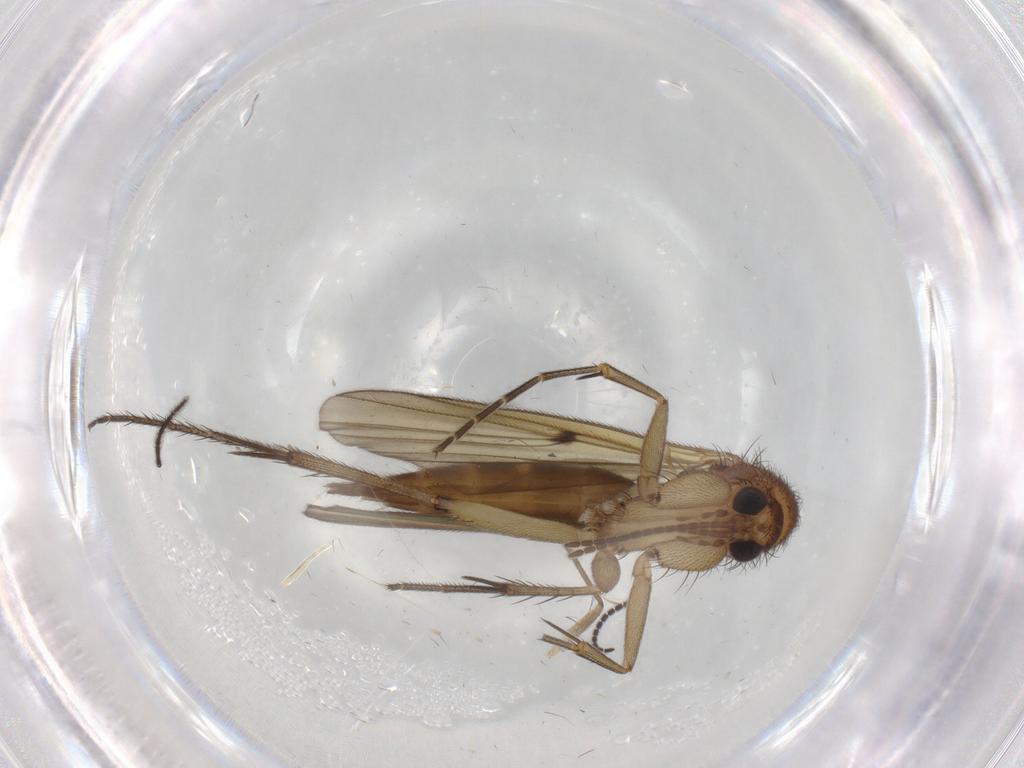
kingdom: Animalia
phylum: Arthropoda
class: Insecta
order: Diptera
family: Mycetophilidae
